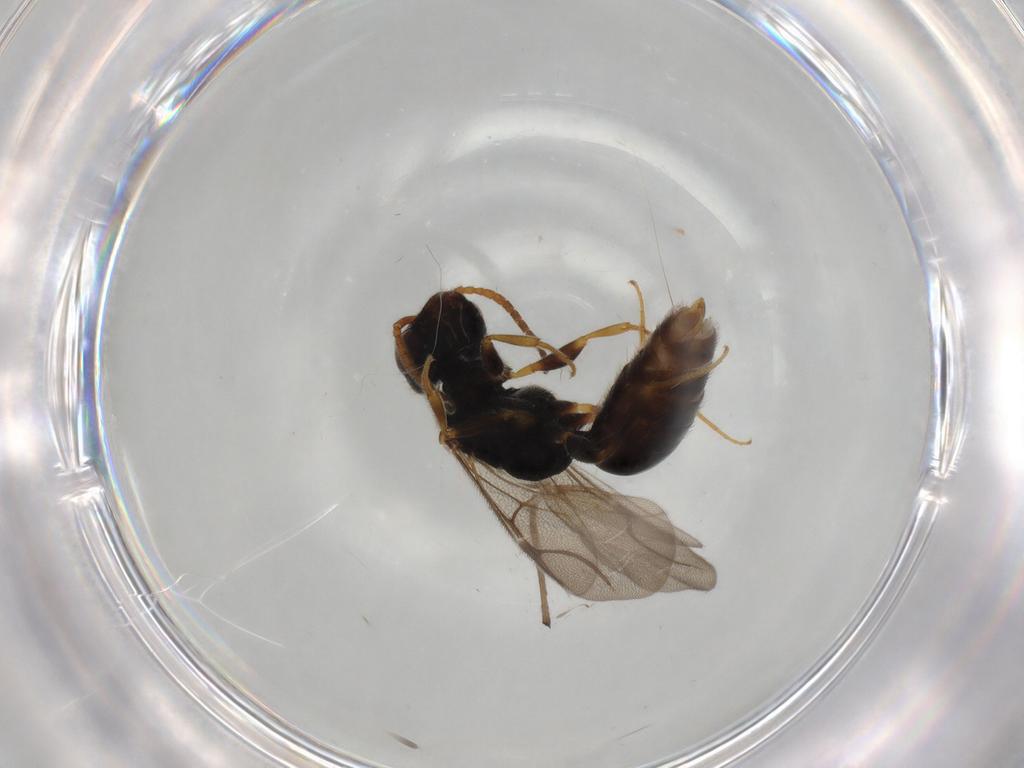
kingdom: Animalia
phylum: Arthropoda
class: Insecta
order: Hymenoptera
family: Bethylidae
